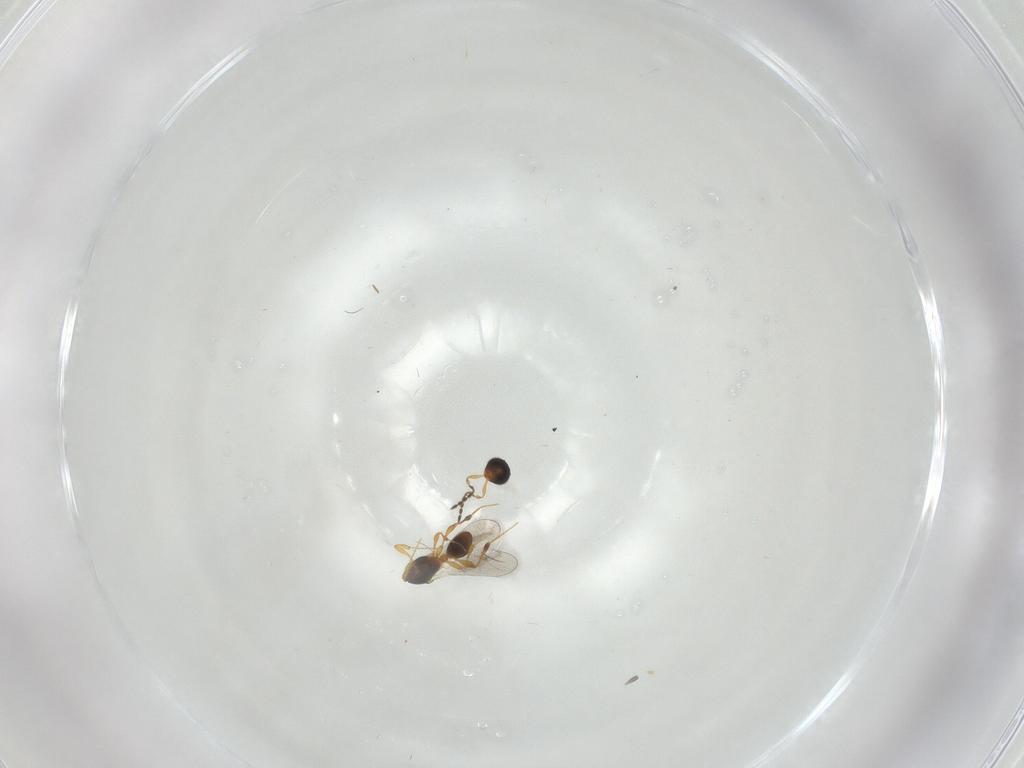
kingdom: Animalia
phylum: Arthropoda
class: Insecta
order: Hymenoptera
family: Platygastridae
